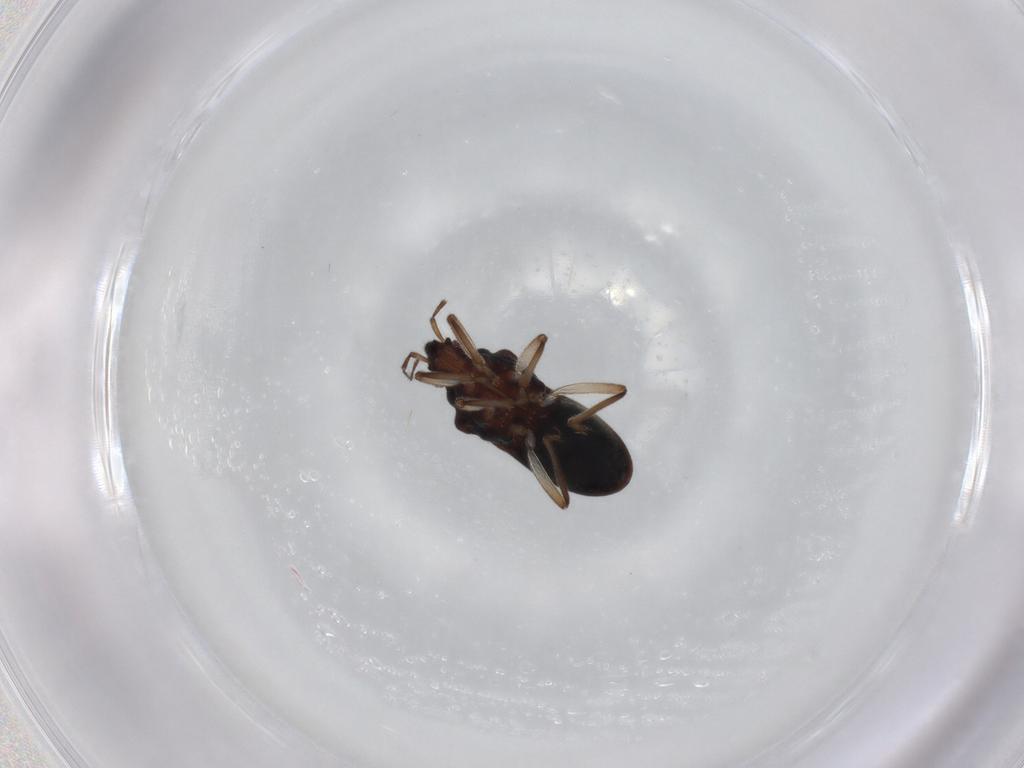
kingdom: Animalia
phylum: Arthropoda
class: Insecta
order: Hemiptera
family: Hebridae
